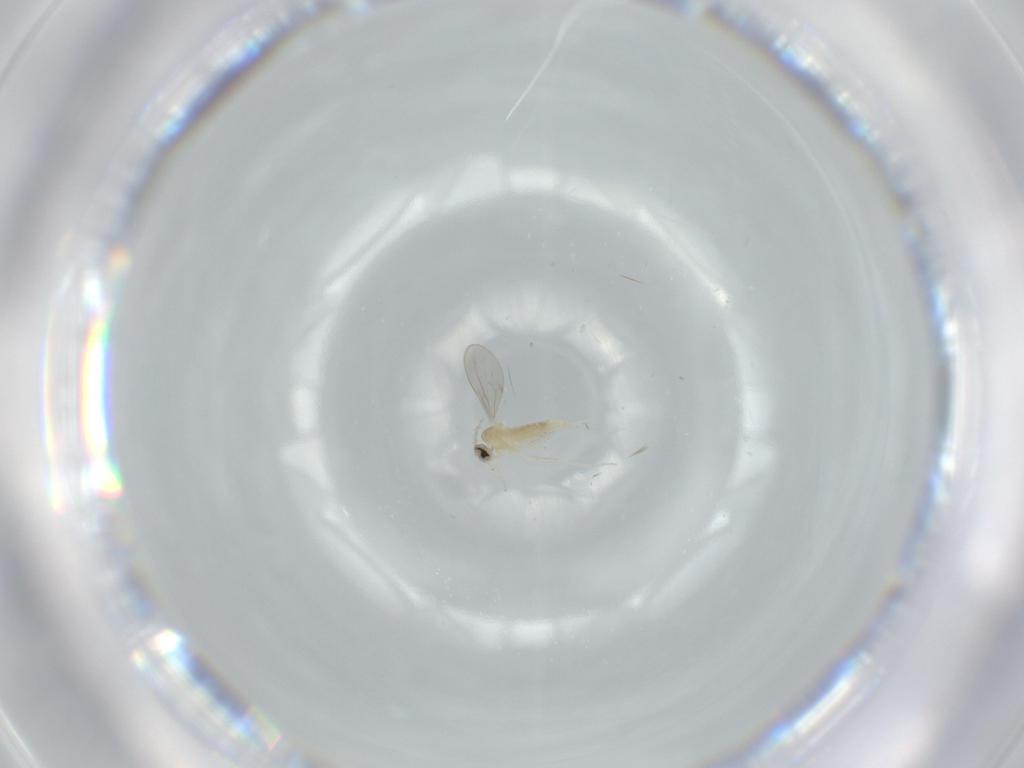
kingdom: Animalia
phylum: Arthropoda
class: Insecta
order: Diptera
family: Cecidomyiidae
